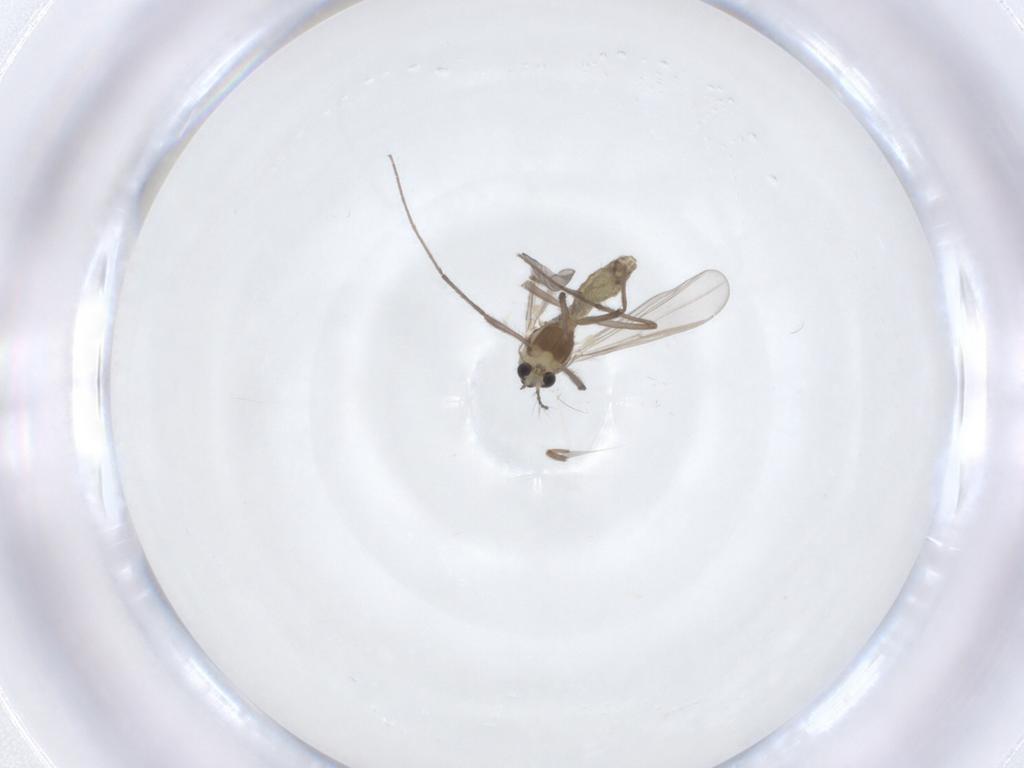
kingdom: Animalia
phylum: Arthropoda
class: Insecta
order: Diptera
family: Chironomidae
